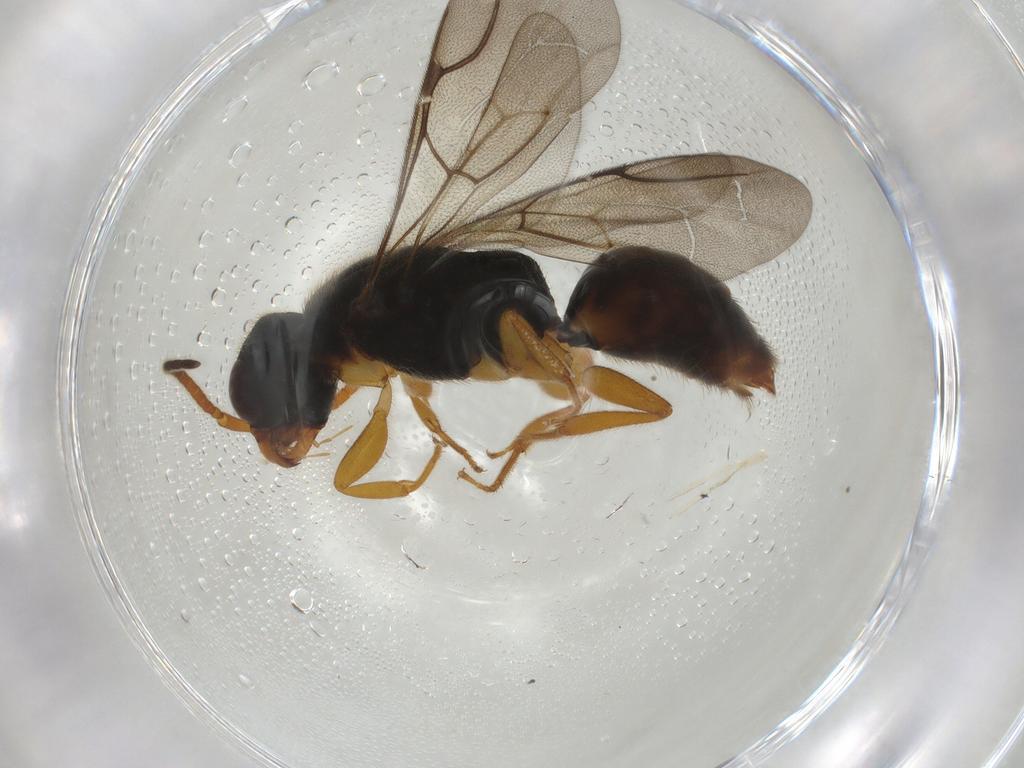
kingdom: Animalia
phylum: Arthropoda
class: Insecta
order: Hymenoptera
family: Bethylidae
